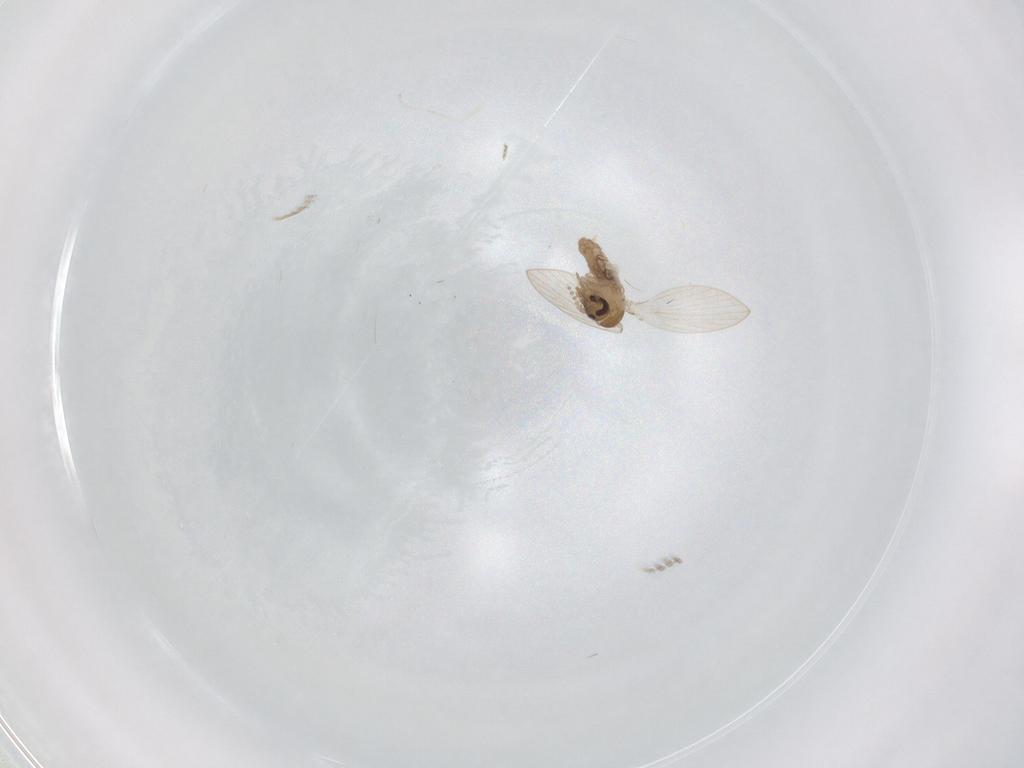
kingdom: Animalia
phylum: Arthropoda
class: Insecta
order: Diptera
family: Psychodidae
